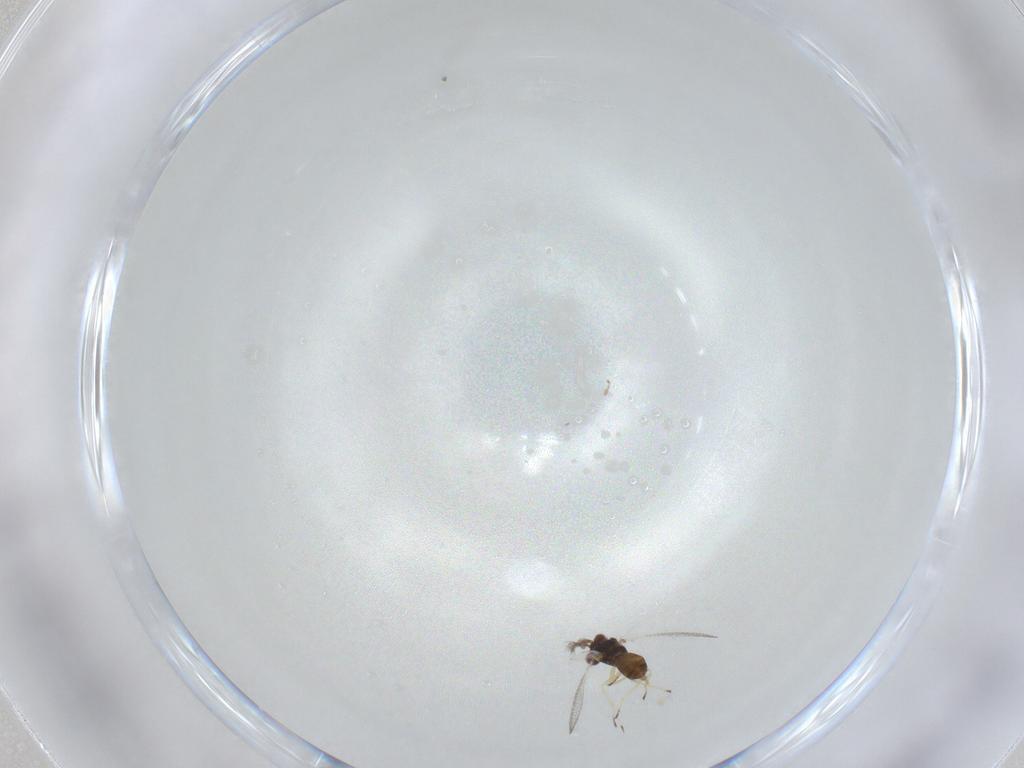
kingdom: Animalia
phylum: Arthropoda
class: Insecta
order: Hymenoptera
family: Eulophidae
